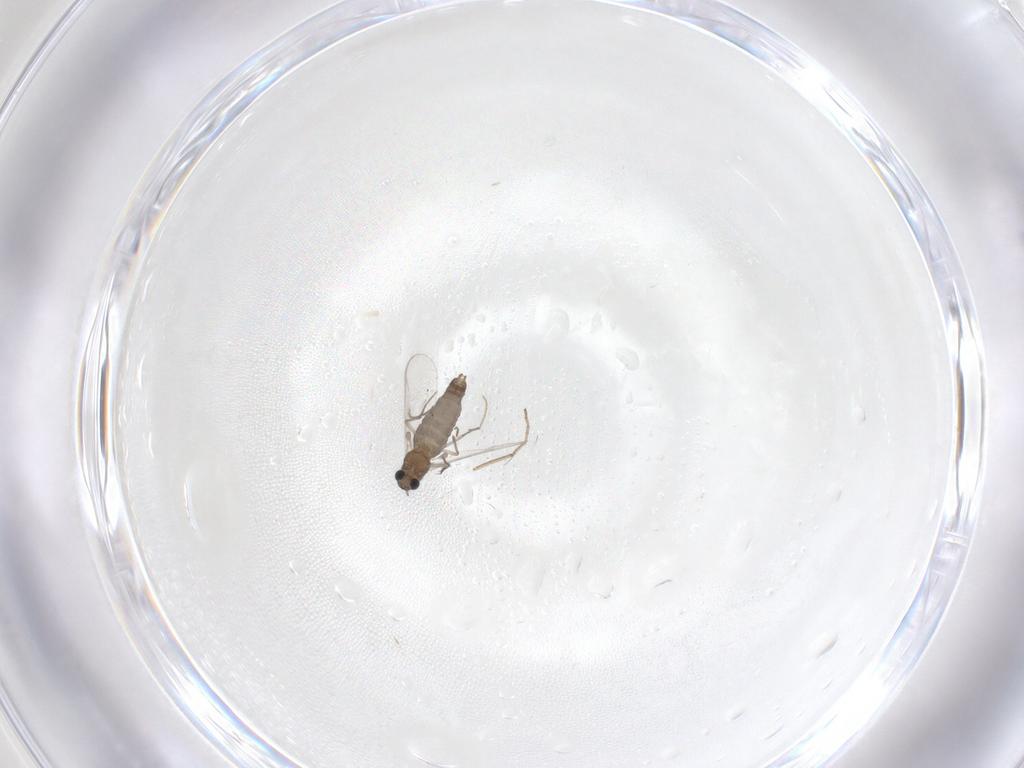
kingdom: Animalia
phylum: Arthropoda
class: Insecta
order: Diptera
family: Chironomidae
